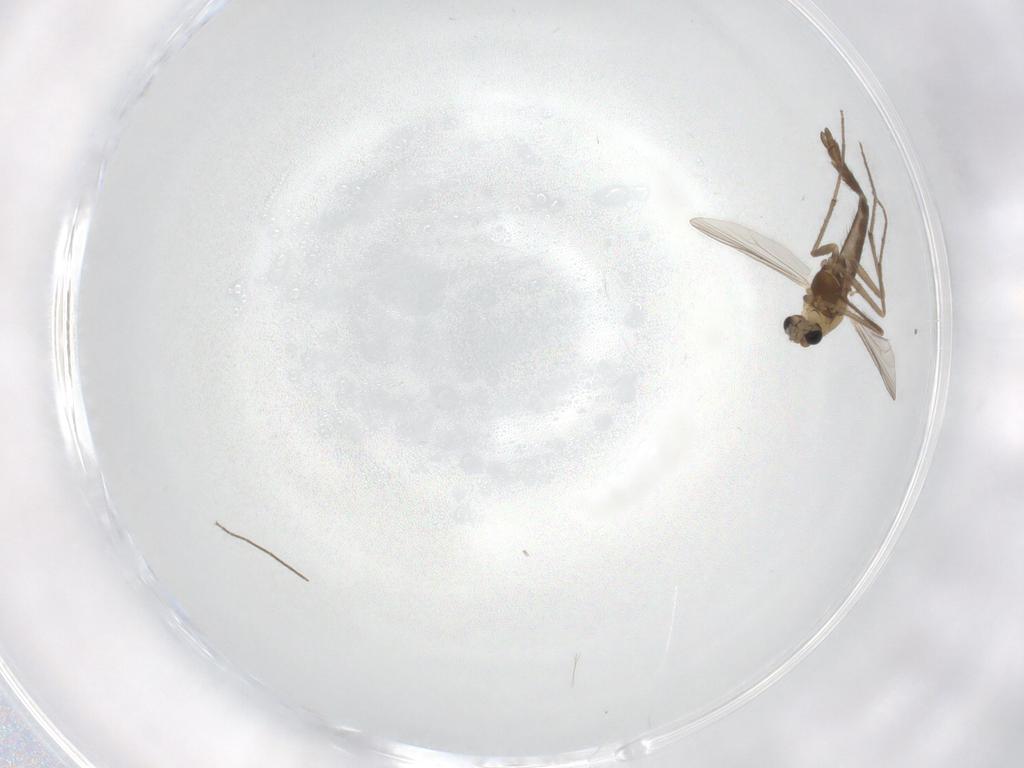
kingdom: Animalia
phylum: Arthropoda
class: Insecta
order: Diptera
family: Chironomidae
